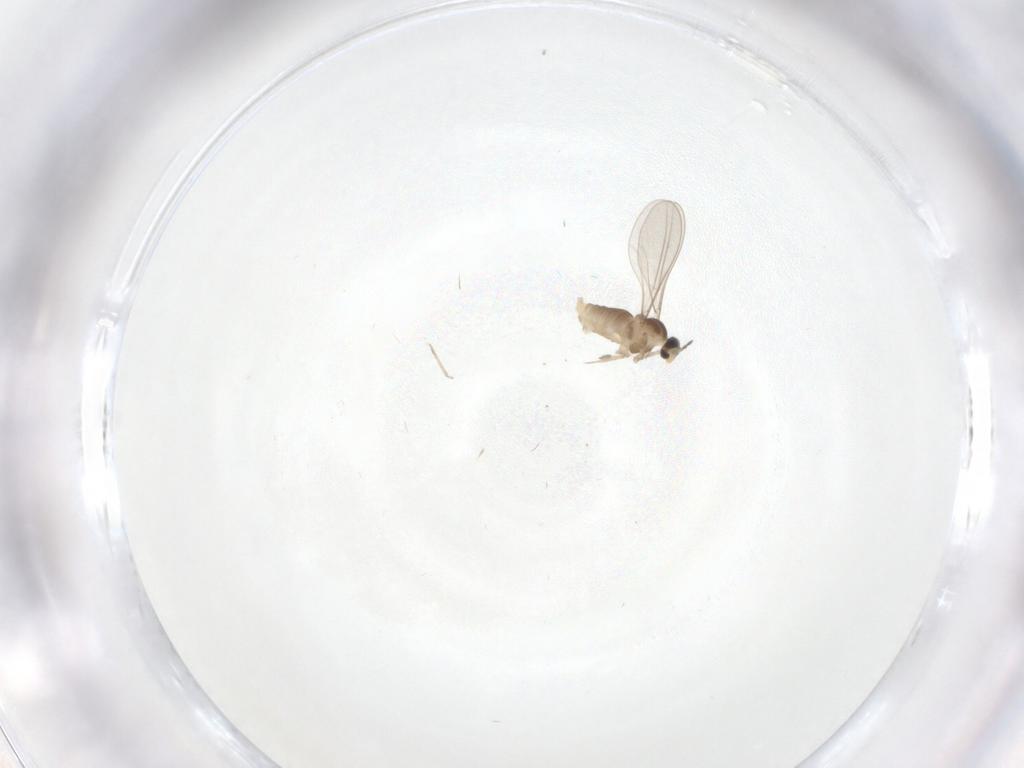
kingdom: Animalia
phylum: Arthropoda
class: Insecta
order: Diptera
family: Cecidomyiidae
